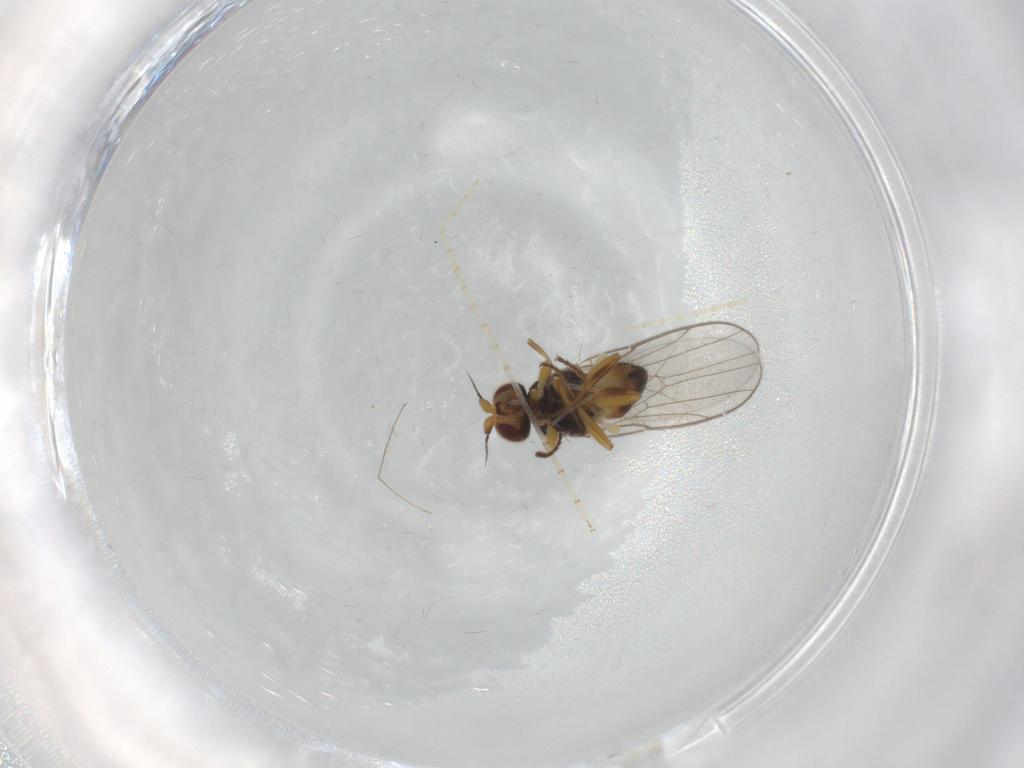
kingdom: Animalia
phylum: Arthropoda
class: Insecta
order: Diptera
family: Chloropidae
